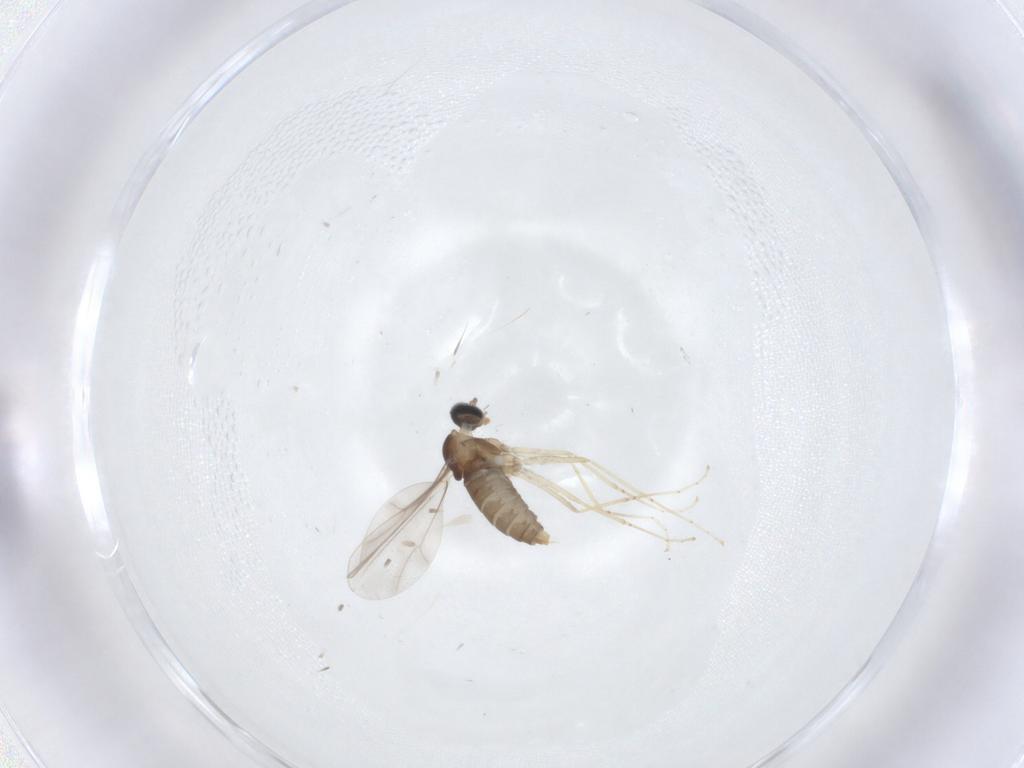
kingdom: Animalia
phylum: Arthropoda
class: Insecta
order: Diptera
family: Cecidomyiidae
